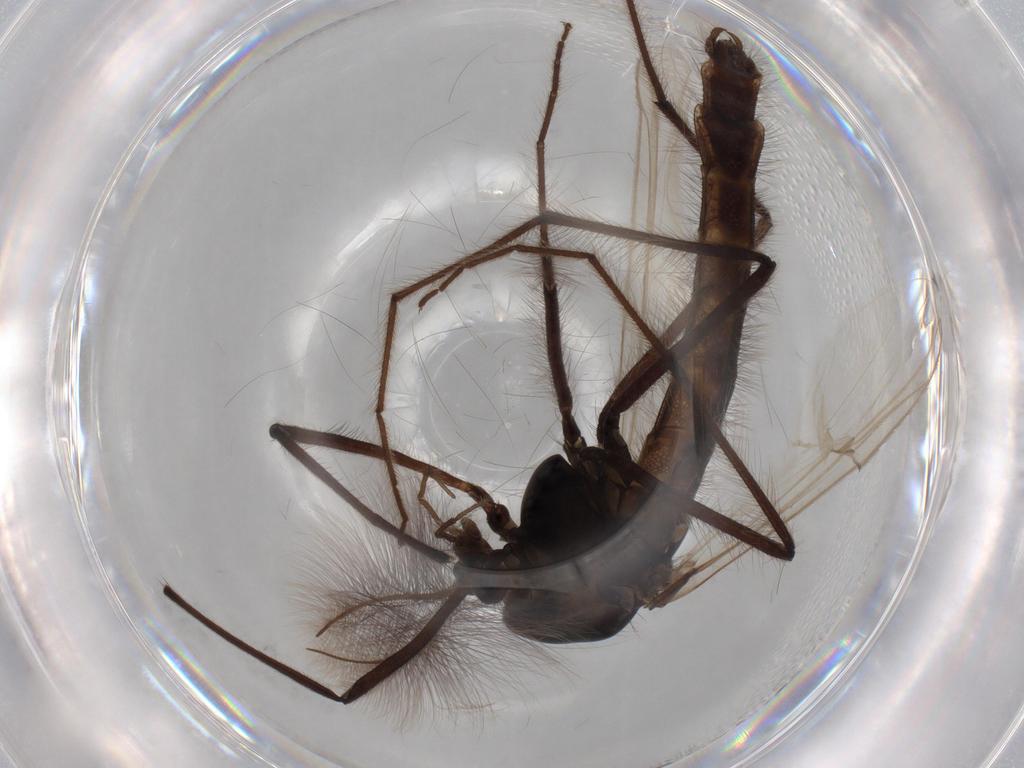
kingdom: Animalia
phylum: Arthropoda
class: Insecta
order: Diptera
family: Chironomidae
